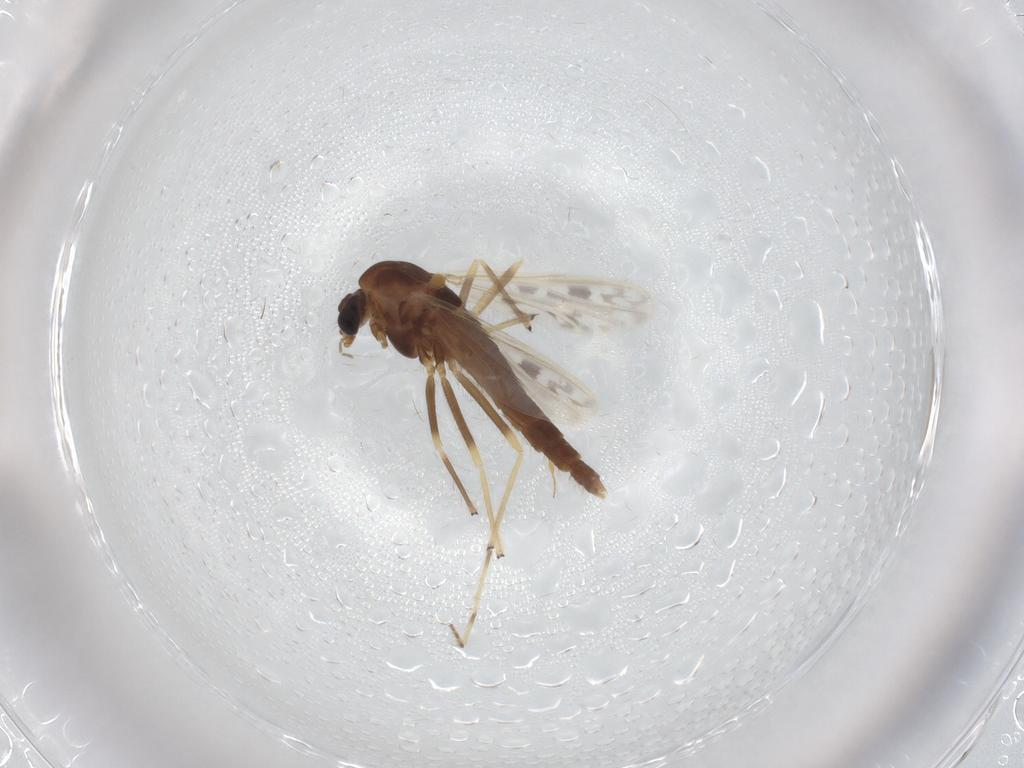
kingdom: Animalia
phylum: Arthropoda
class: Insecta
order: Diptera
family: Chironomidae
